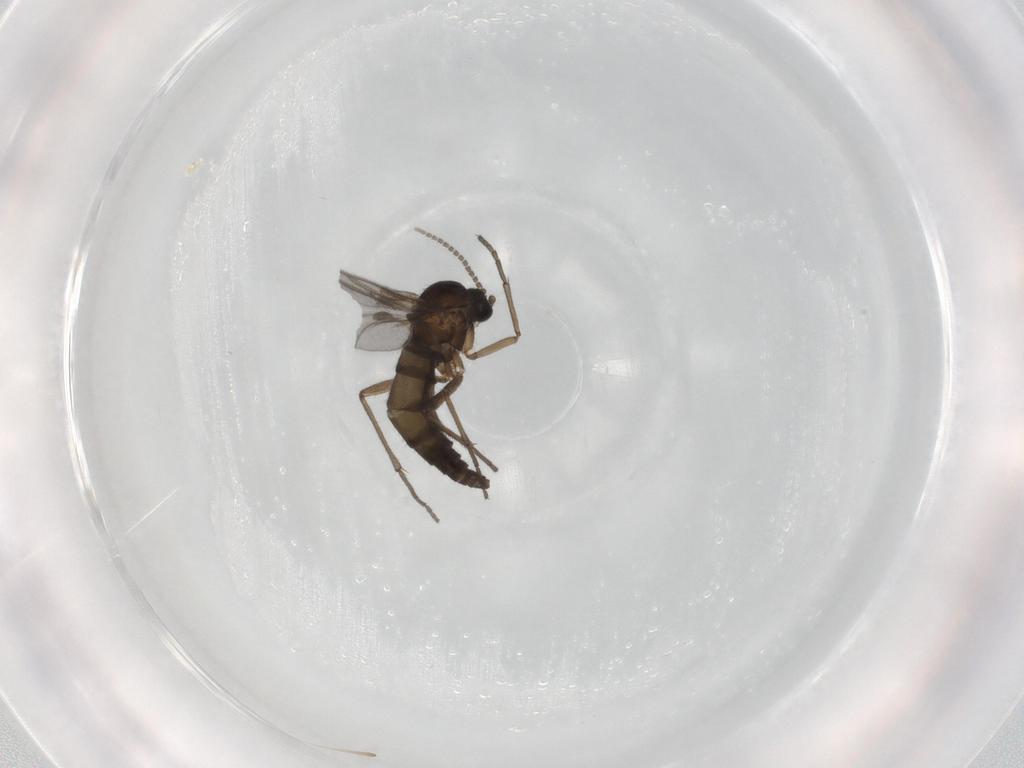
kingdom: Animalia
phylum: Arthropoda
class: Insecta
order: Diptera
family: Sciaridae
